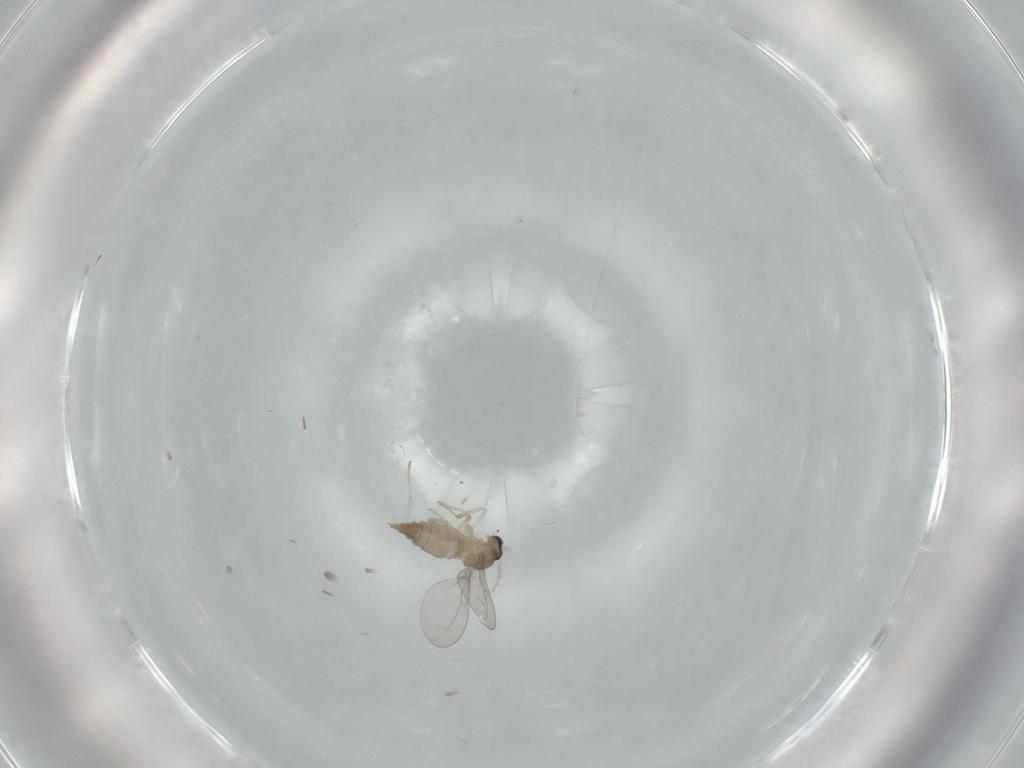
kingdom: Animalia
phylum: Arthropoda
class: Insecta
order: Diptera
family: Cecidomyiidae
